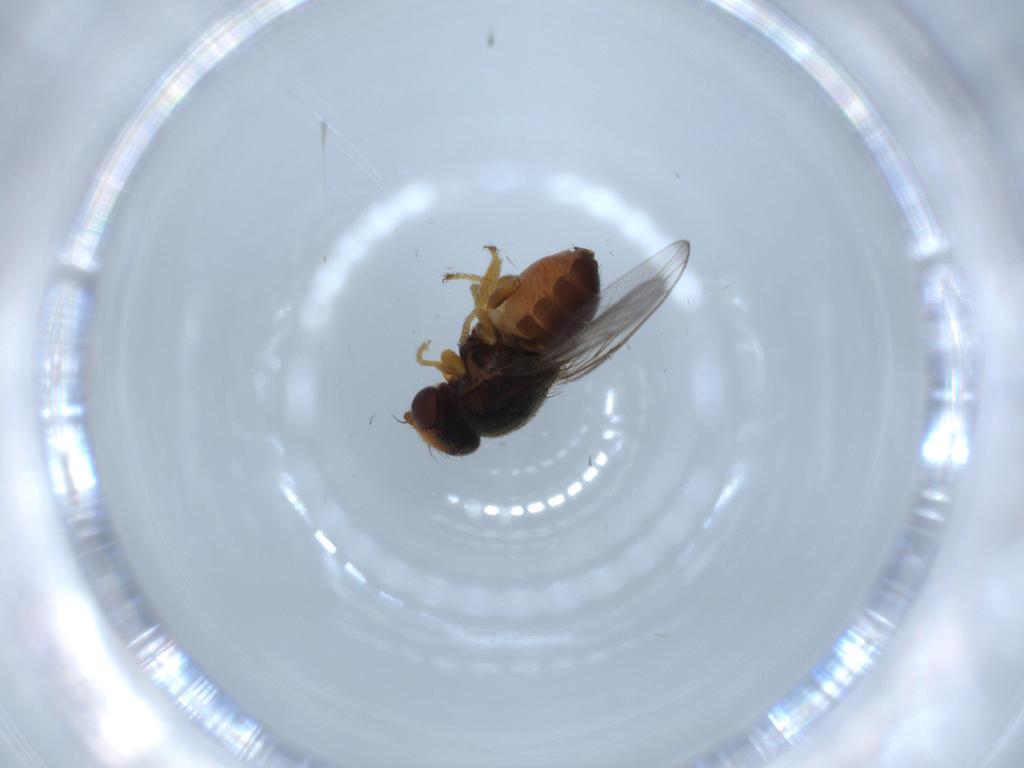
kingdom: Animalia
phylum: Arthropoda
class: Insecta
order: Diptera
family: Chloropidae
